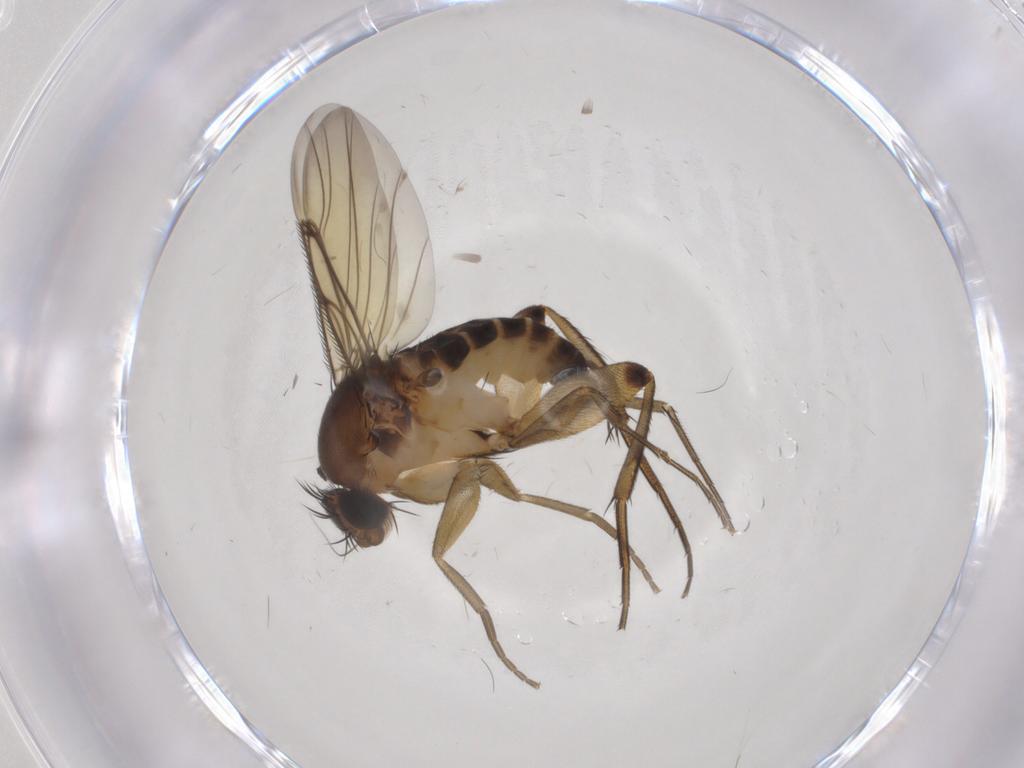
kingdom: Animalia
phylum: Arthropoda
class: Insecta
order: Diptera
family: Phoridae
